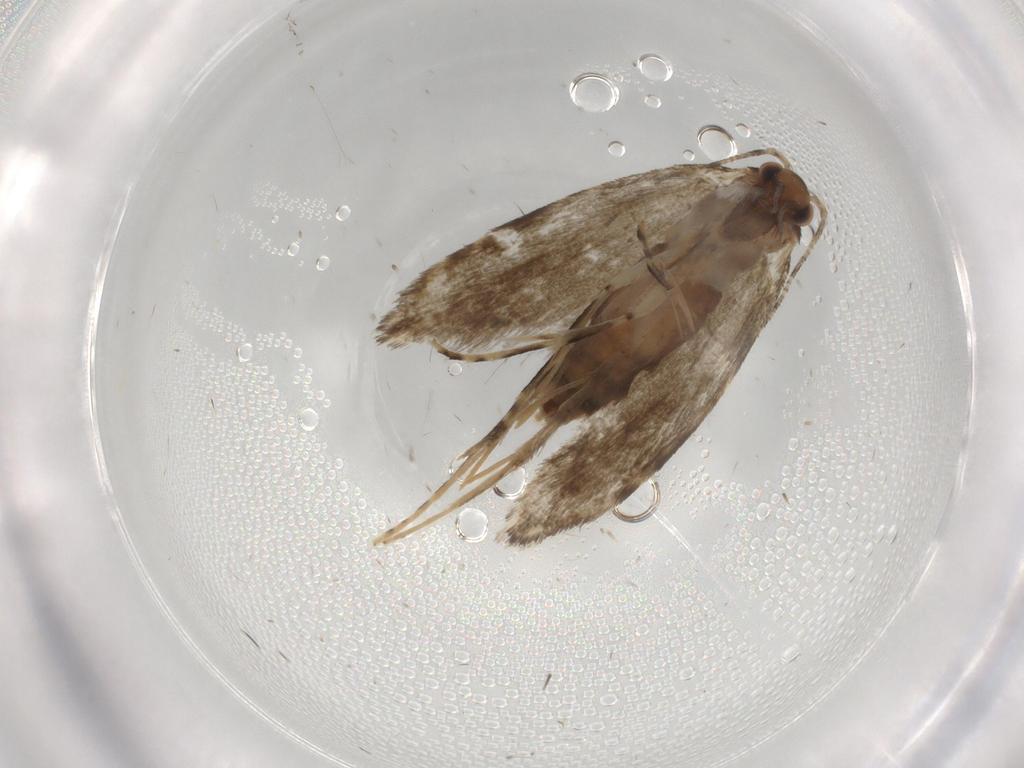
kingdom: Animalia
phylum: Arthropoda
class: Insecta
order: Lepidoptera
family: Tineidae
